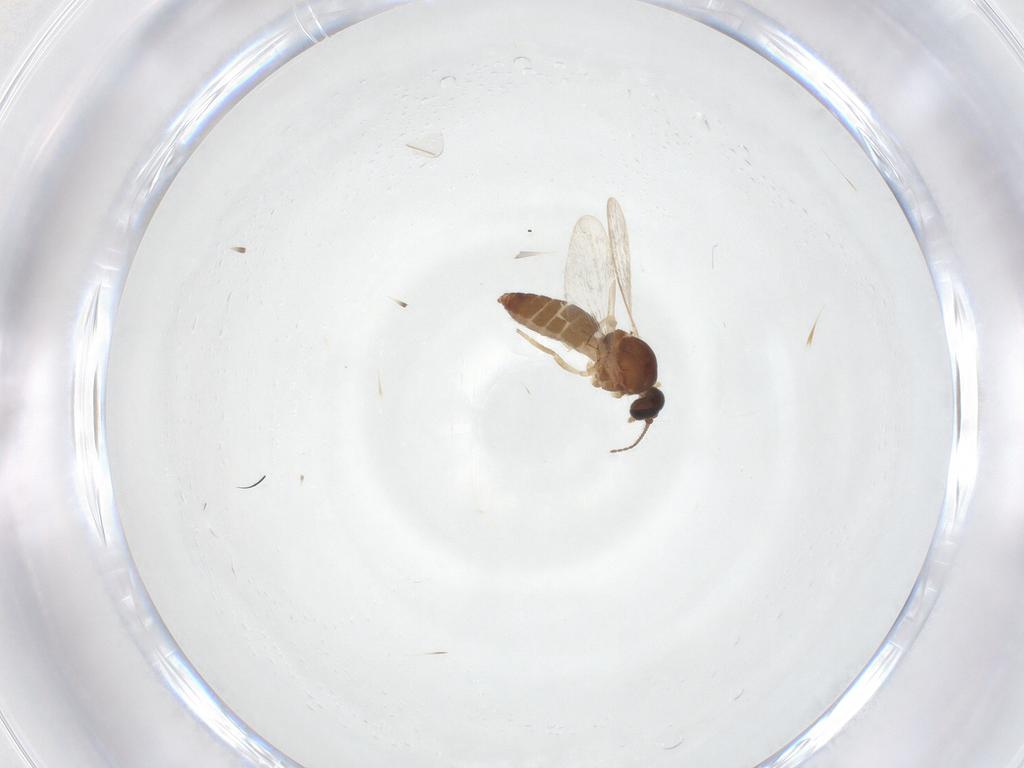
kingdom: Animalia
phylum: Arthropoda
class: Insecta
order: Diptera
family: Ceratopogonidae
